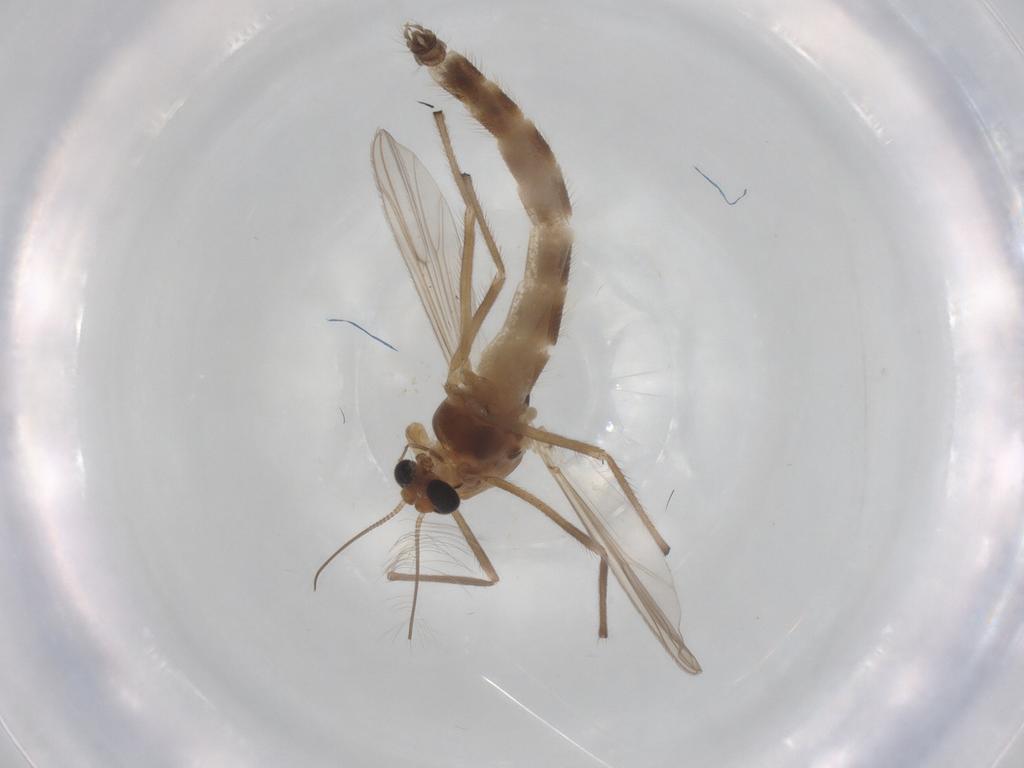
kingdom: Animalia
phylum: Arthropoda
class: Insecta
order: Diptera
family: Chironomidae
